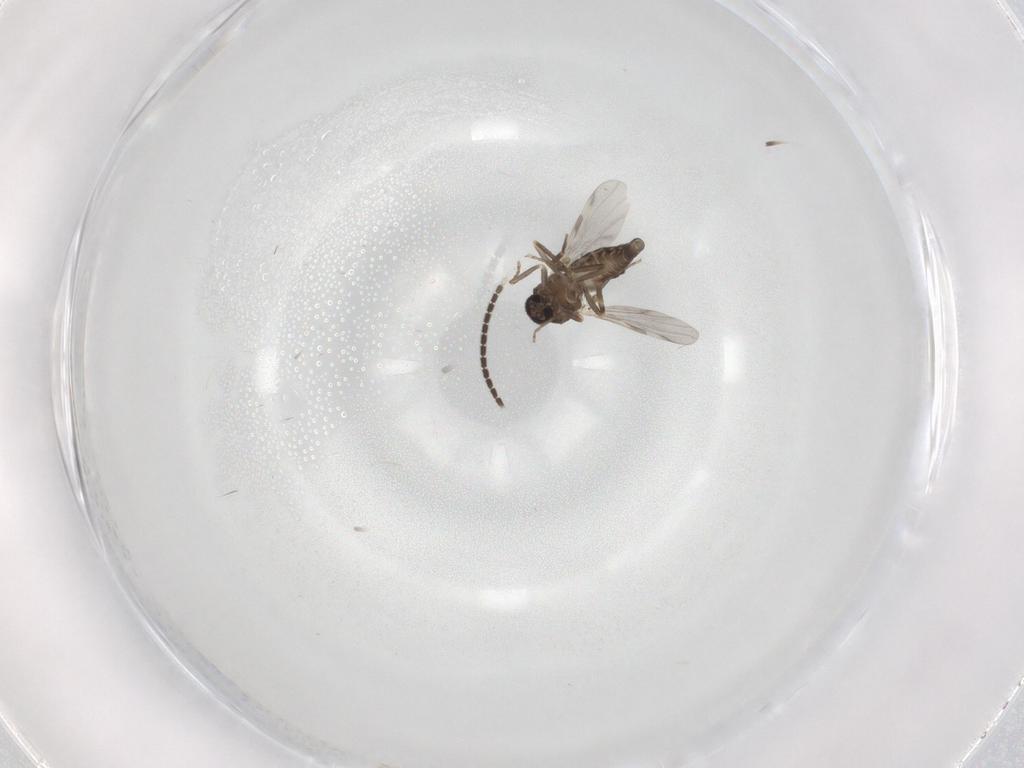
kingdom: Animalia
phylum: Arthropoda
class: Insecta
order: Diptera
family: Ceratopogonidae
